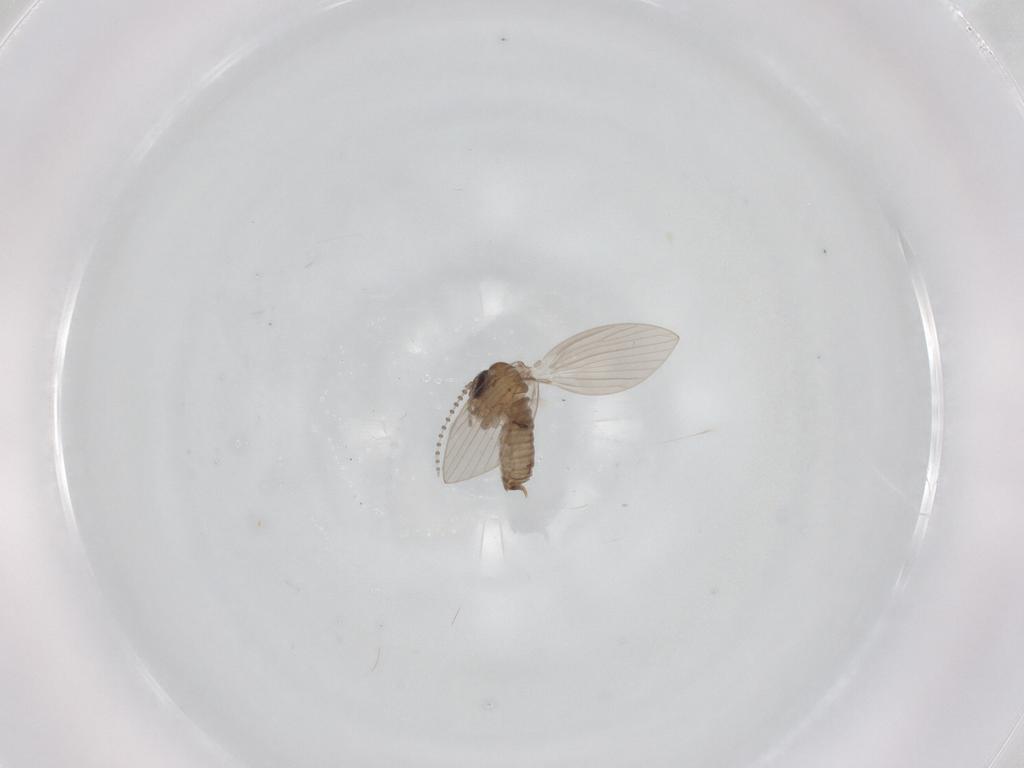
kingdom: Animalia
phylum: Arthropoda
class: Insecta
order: Diptera
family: Psychodidae
